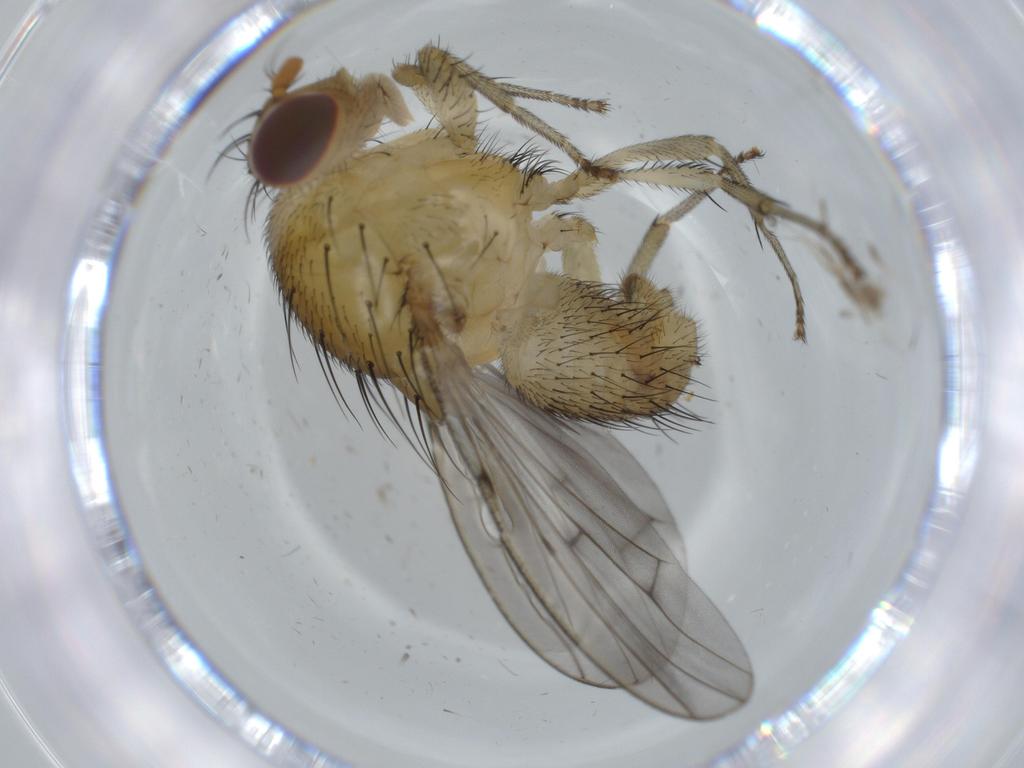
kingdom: Animalia
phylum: Arthropoda
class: Insecta
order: Diptera
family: Chironomidae
